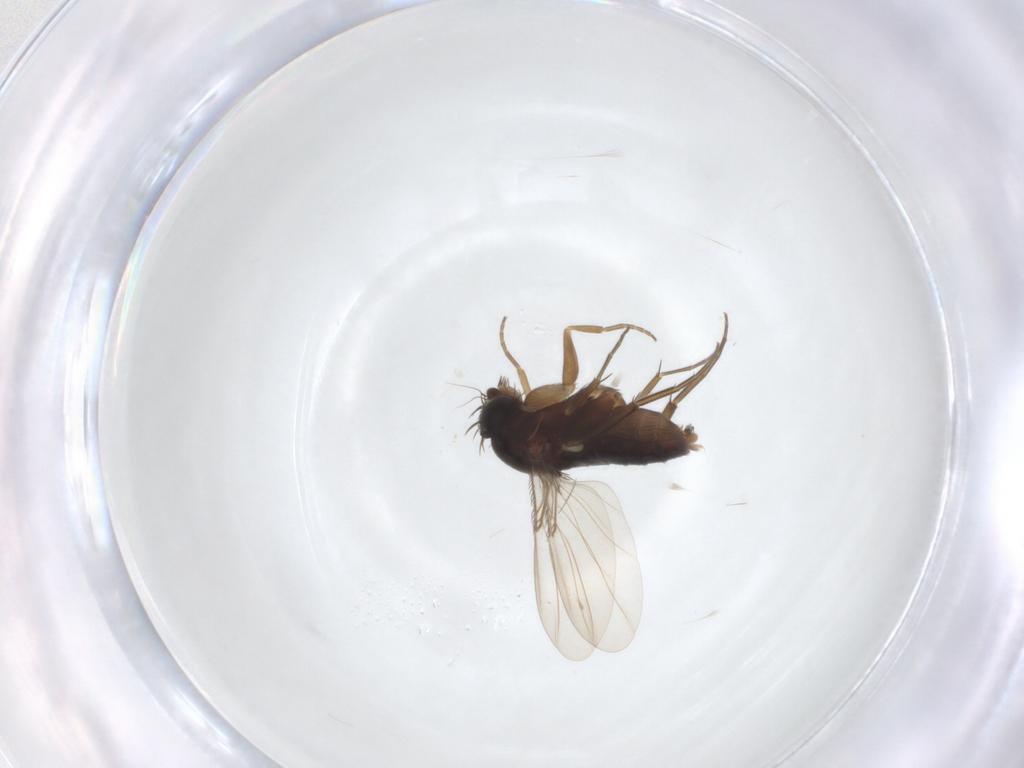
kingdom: Animalia
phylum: Arthropoda
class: Insecta
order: Diptera
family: Phoridae
